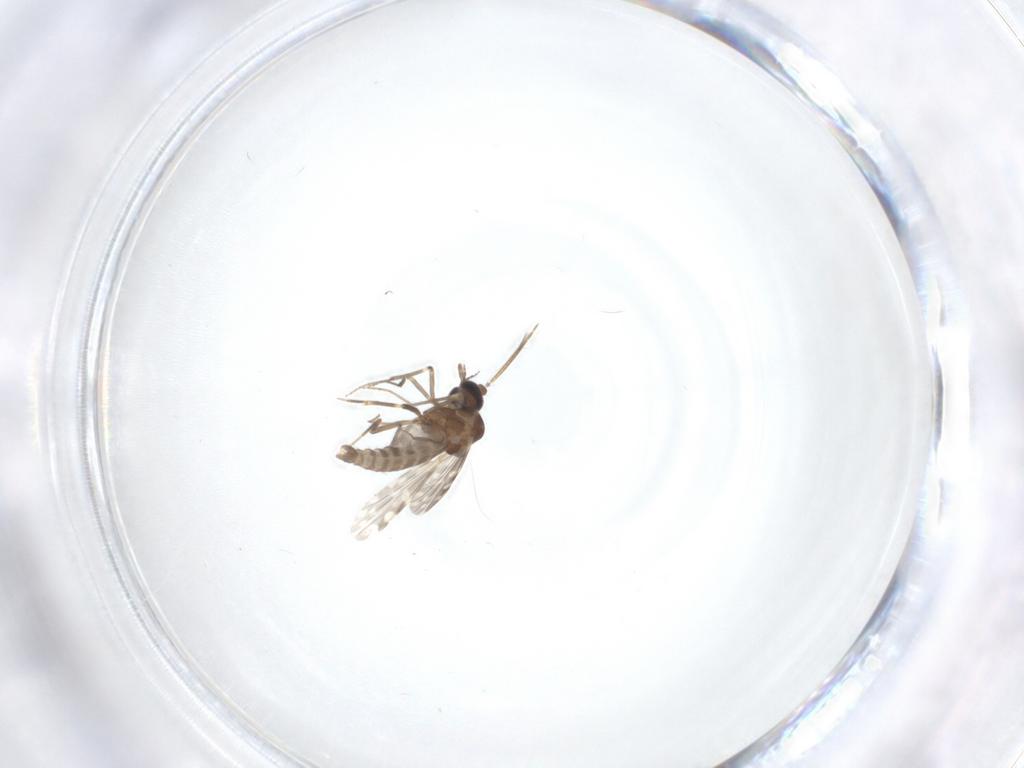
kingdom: Animalia
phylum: Arthropoda
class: Insecta
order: Diptera
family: Ceratopogonidae
